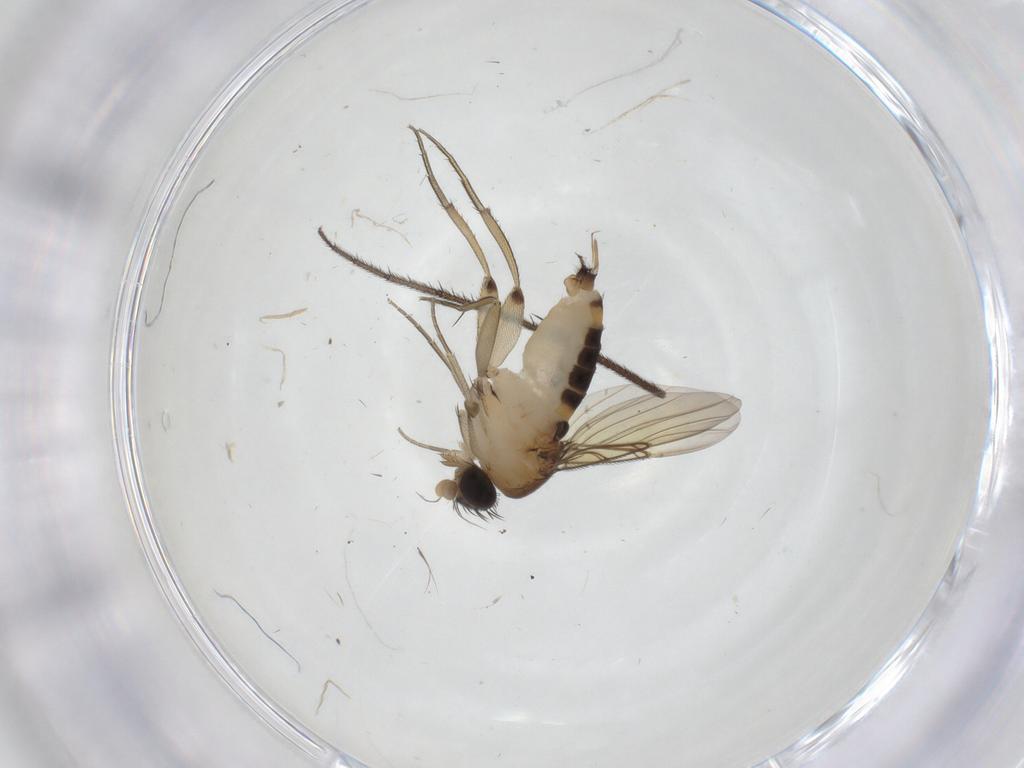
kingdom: Animalia
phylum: Arthropoda
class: Insecta
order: Diptera
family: Phoridae
